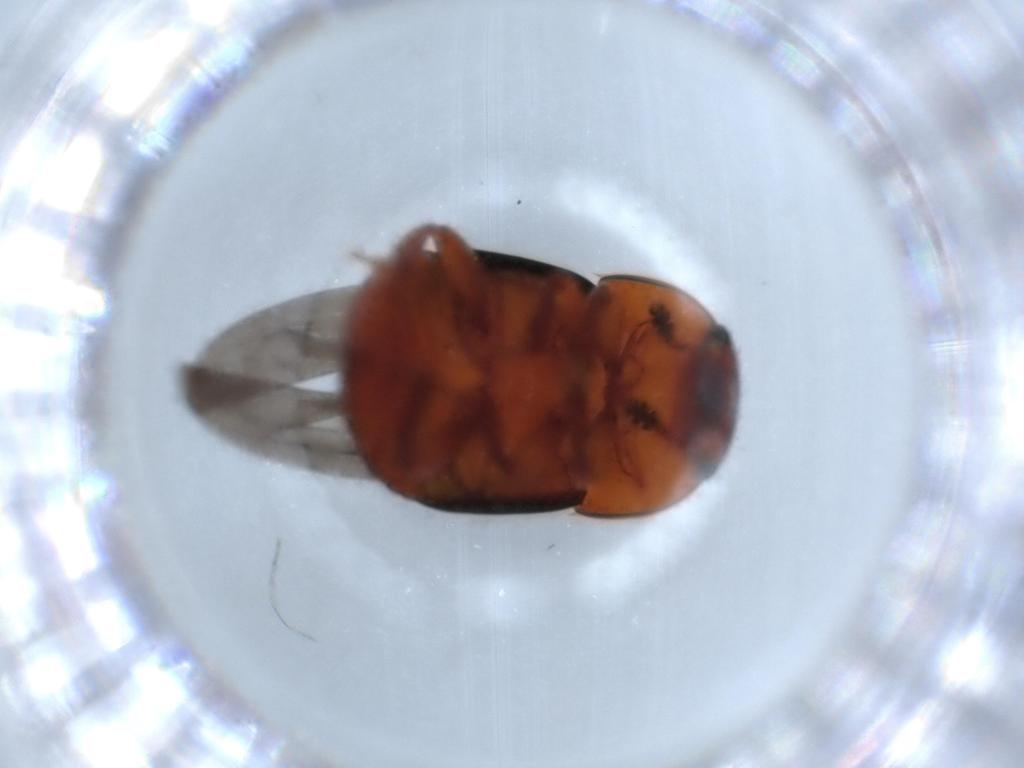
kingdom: Animalia
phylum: Arthropoda
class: Insecta
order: Coleoptera
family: Nitidulidae
